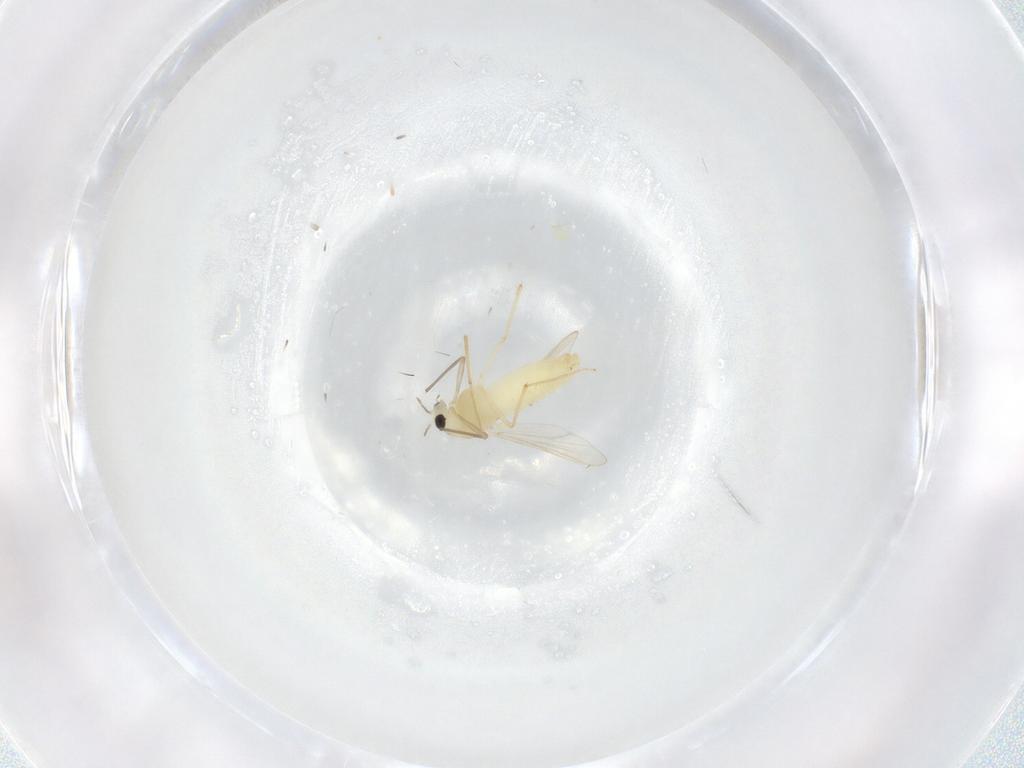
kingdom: Animalia
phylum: Arthropoda
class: Insecta
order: Diptera
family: Chironomidae
